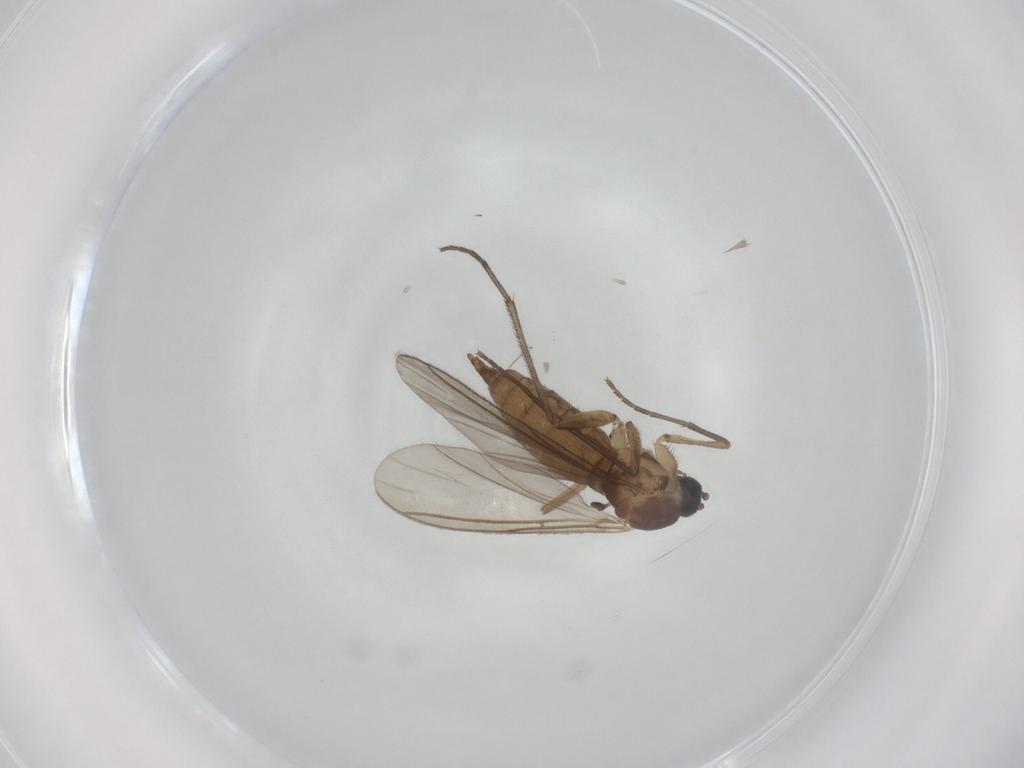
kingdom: Animalia
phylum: Arthropoda
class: Insecta
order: Diptera
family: Sciaridae
